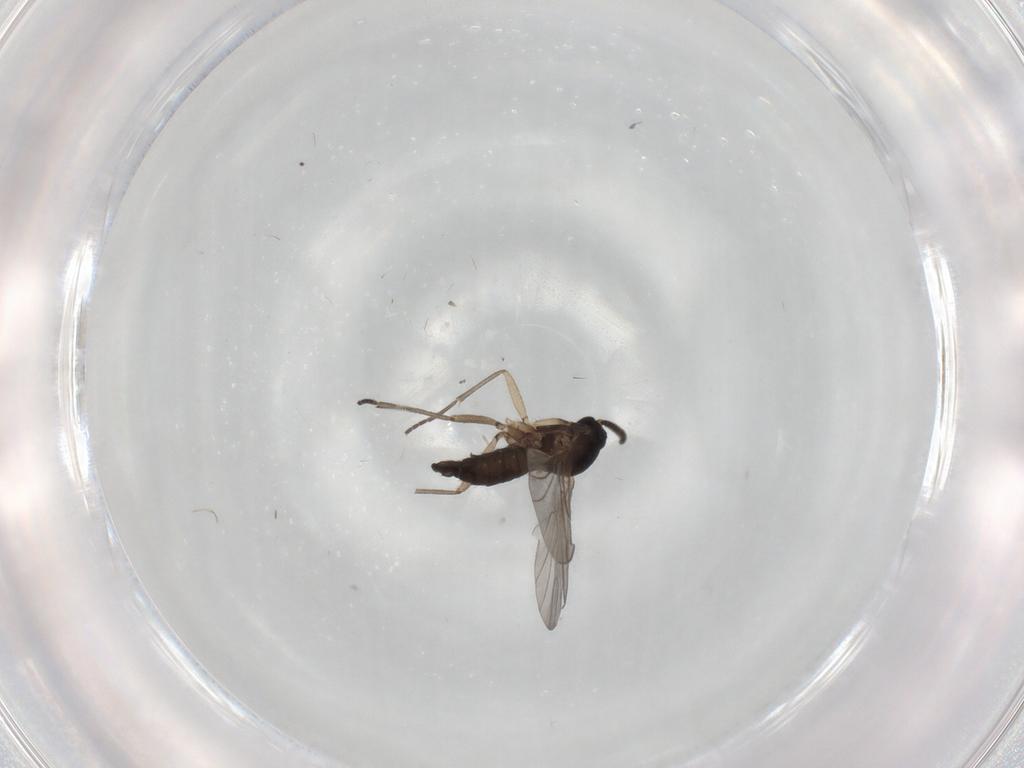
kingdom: Animalia
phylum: Arthropoda
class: Insecta
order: Diptera
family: Sciaridae
